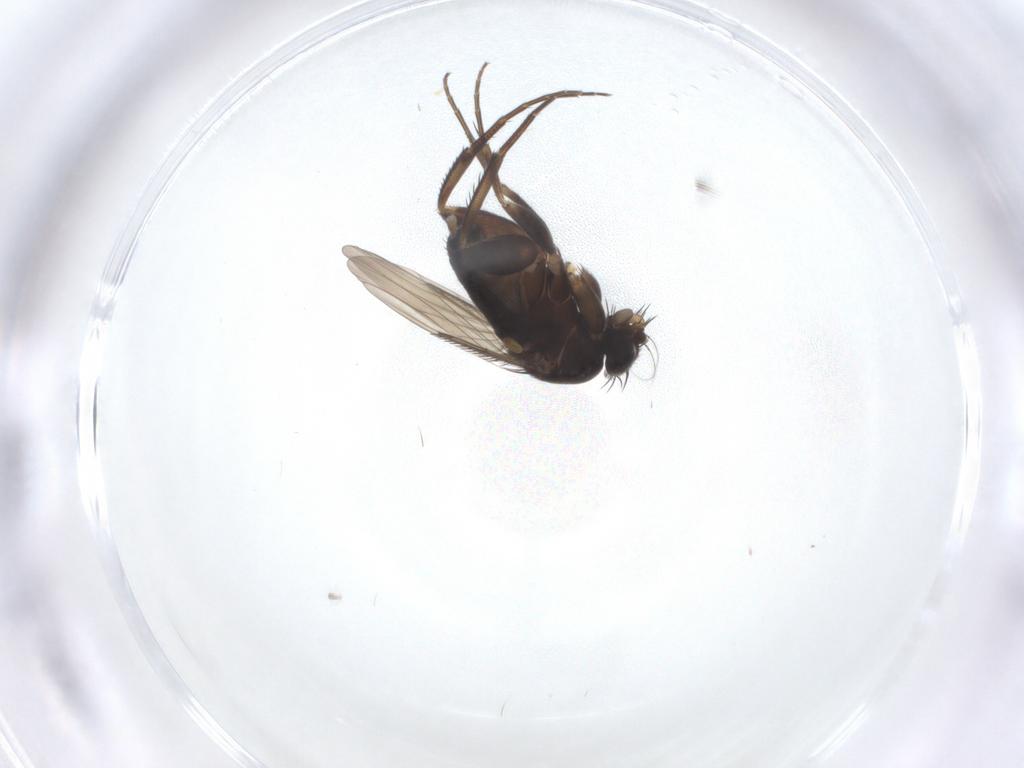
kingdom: Animalia
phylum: Arthropoda
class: Insecta
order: Diptera
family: Phoridae
